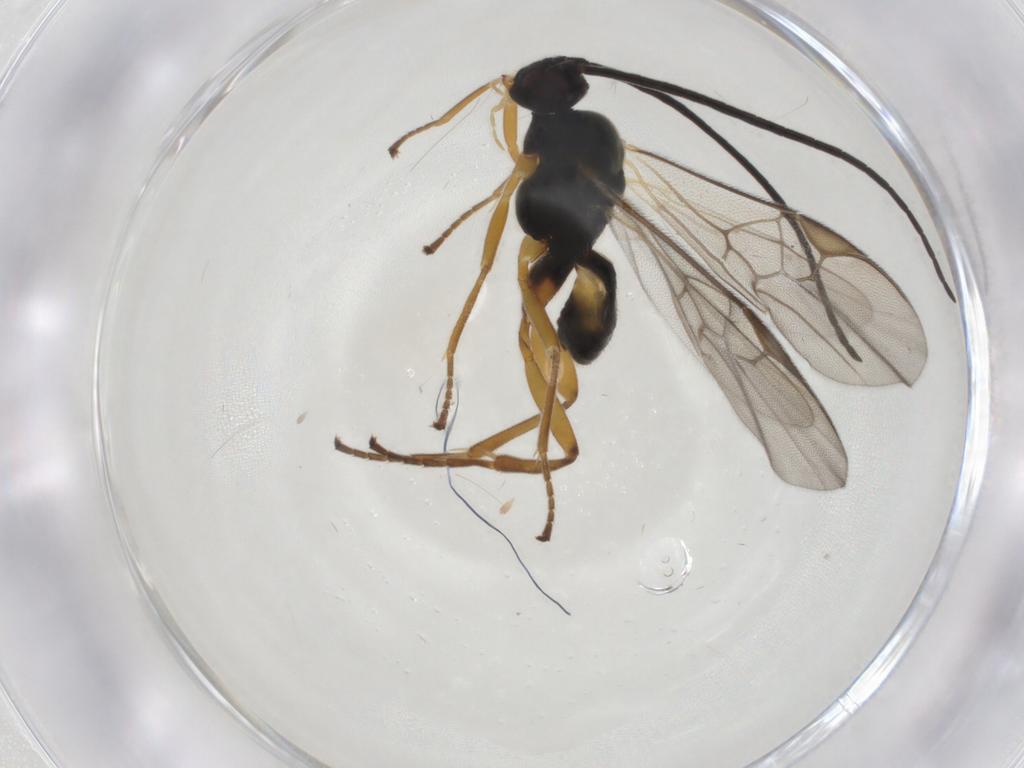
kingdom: Animalia
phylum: Arthropoda
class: Insecta
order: Hymenoptera
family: Braconidae
